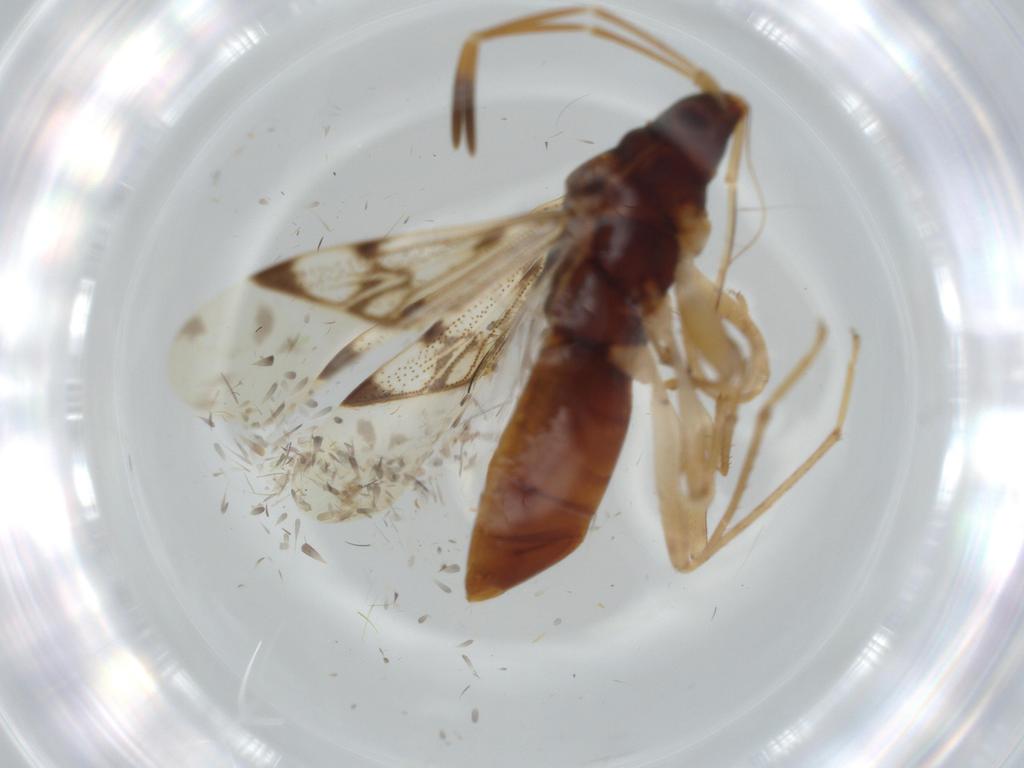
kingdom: Animalia
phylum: Arthropoda
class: Insecta
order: Hemiptera
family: Rhyparochromidae
